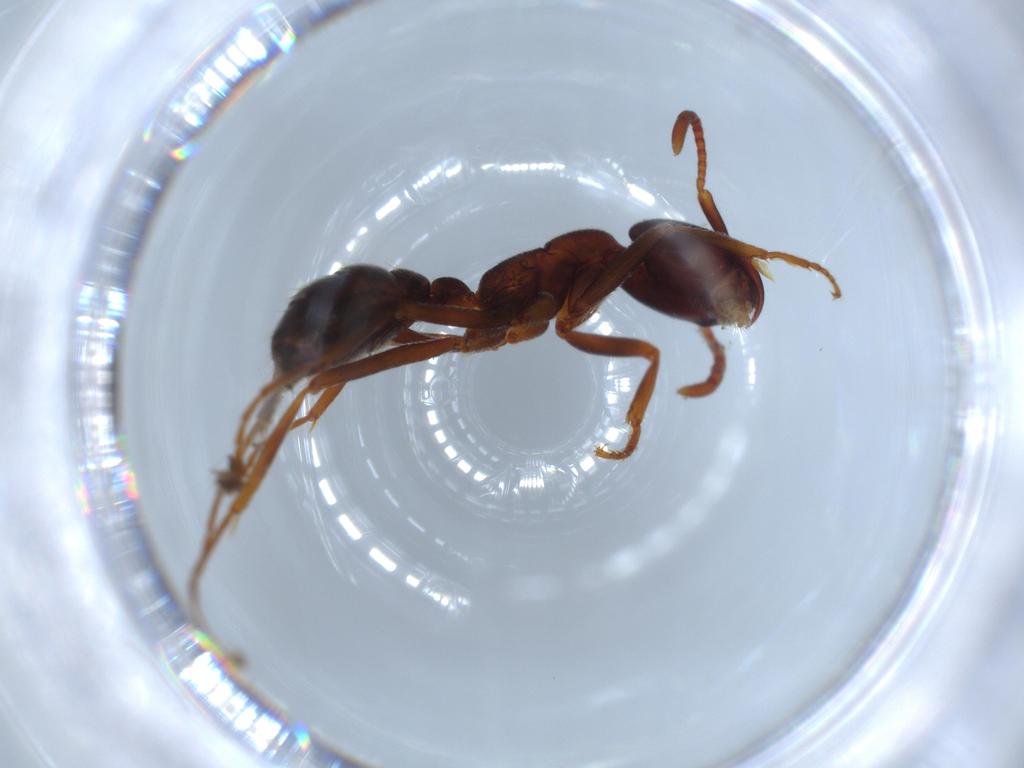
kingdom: Animalia
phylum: Arthropoda
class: Insecta
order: Hymenoptera
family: Formicidae
